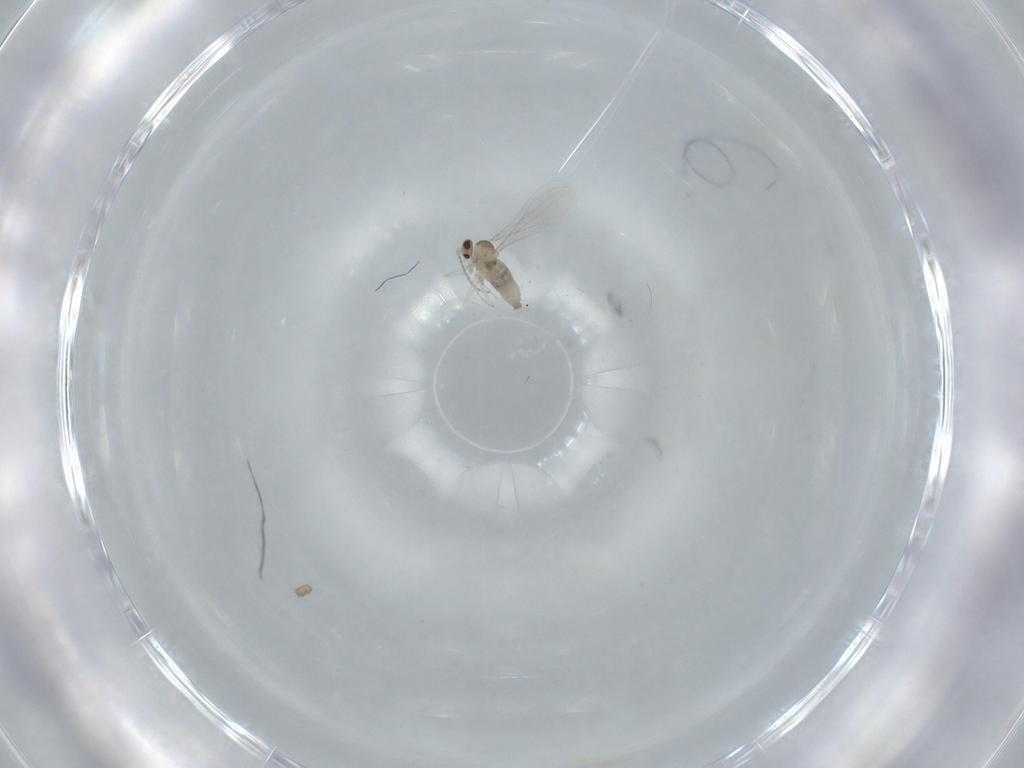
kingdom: Animalia
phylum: Arthropoda
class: Insecta
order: Diptera
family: Cecidomyiidae
